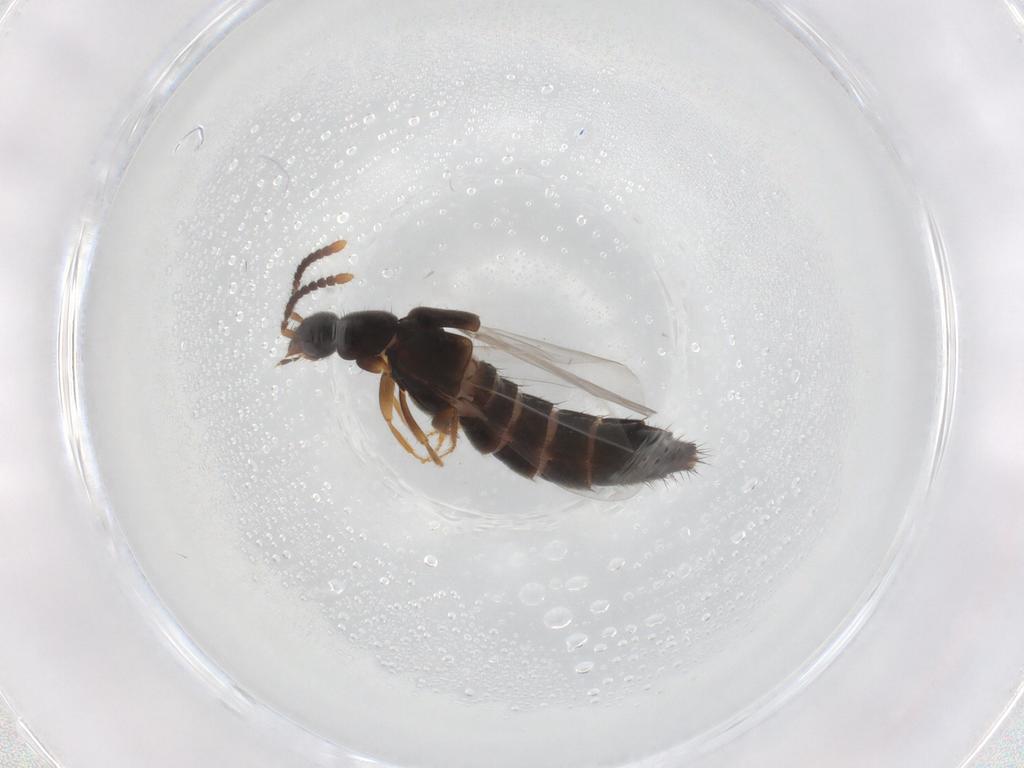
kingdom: Animalia
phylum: Arthropoda
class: Insecta
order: Coleoptera
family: Staphylinidae
